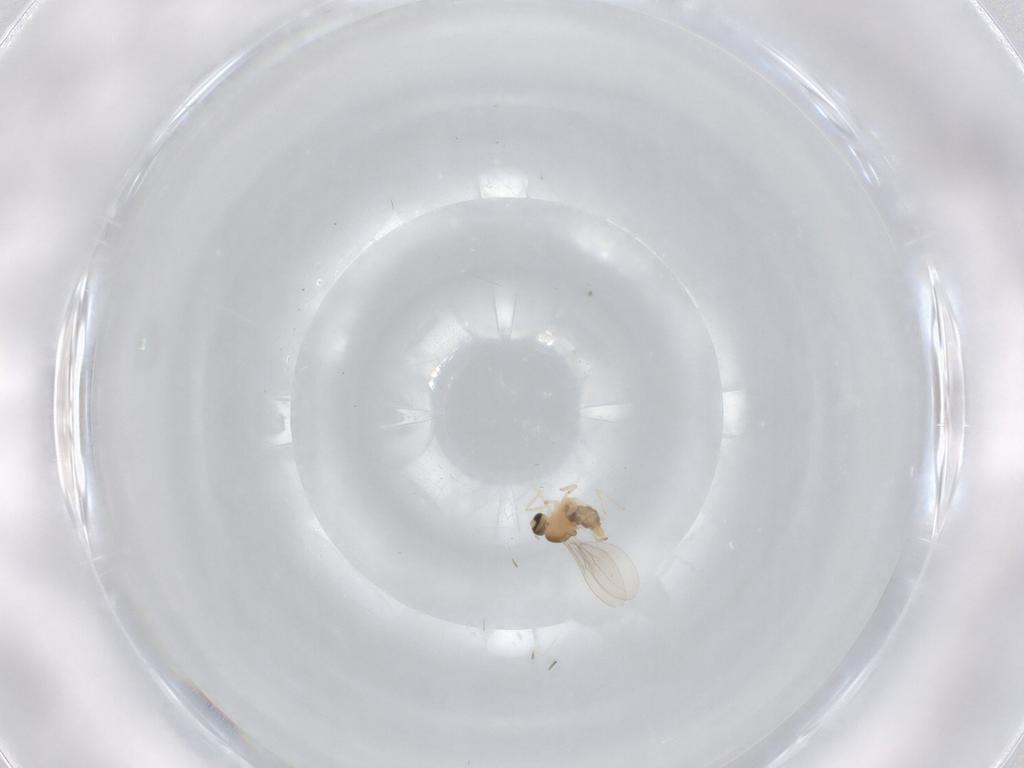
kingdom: Animalia
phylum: Arthropoda
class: Insecta
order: Diptera
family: Cecidomyiidae
